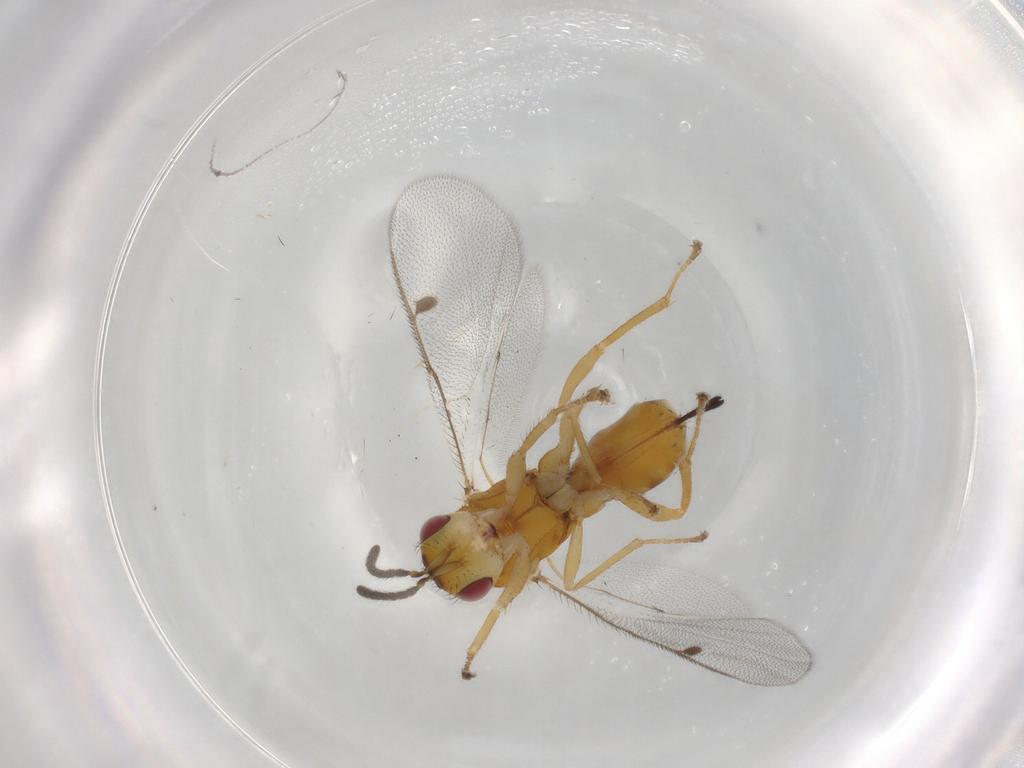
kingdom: Animalia
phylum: Arthropoda
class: Insecta
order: Hymenoptera
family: Megastigmidae
